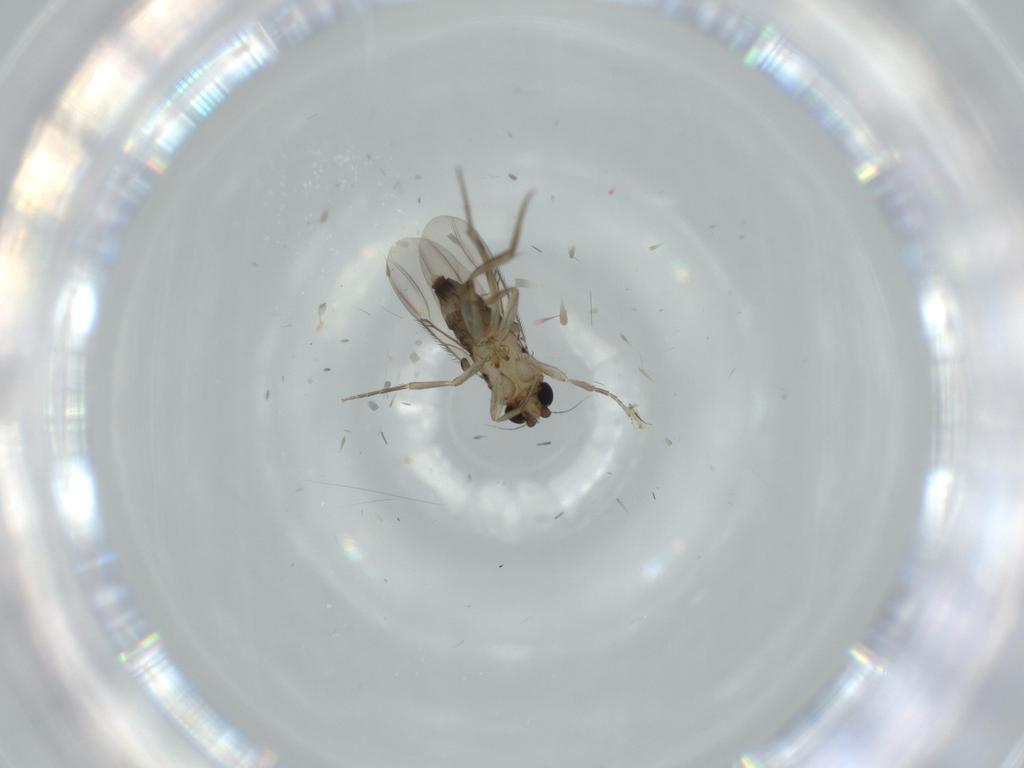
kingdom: Animalia
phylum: Arthropoda
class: Insecta
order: Diptera
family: Phoridae
